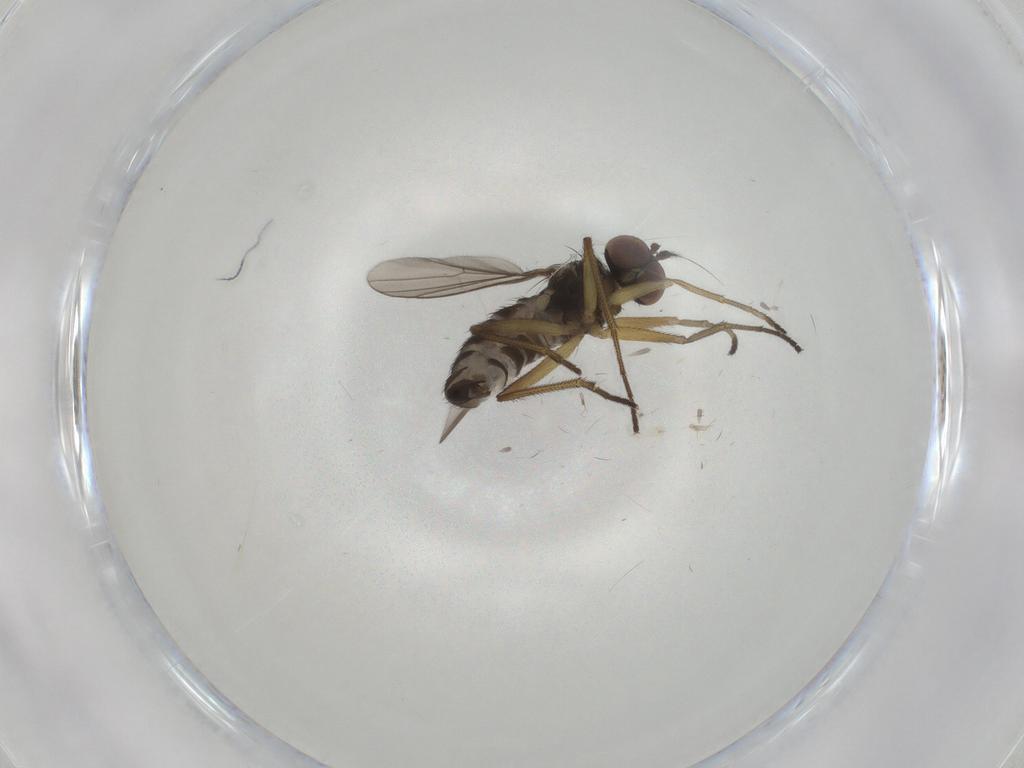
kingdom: Animalia
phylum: Arthropoda
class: Insecta
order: Diptera
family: Dolichopodidae
